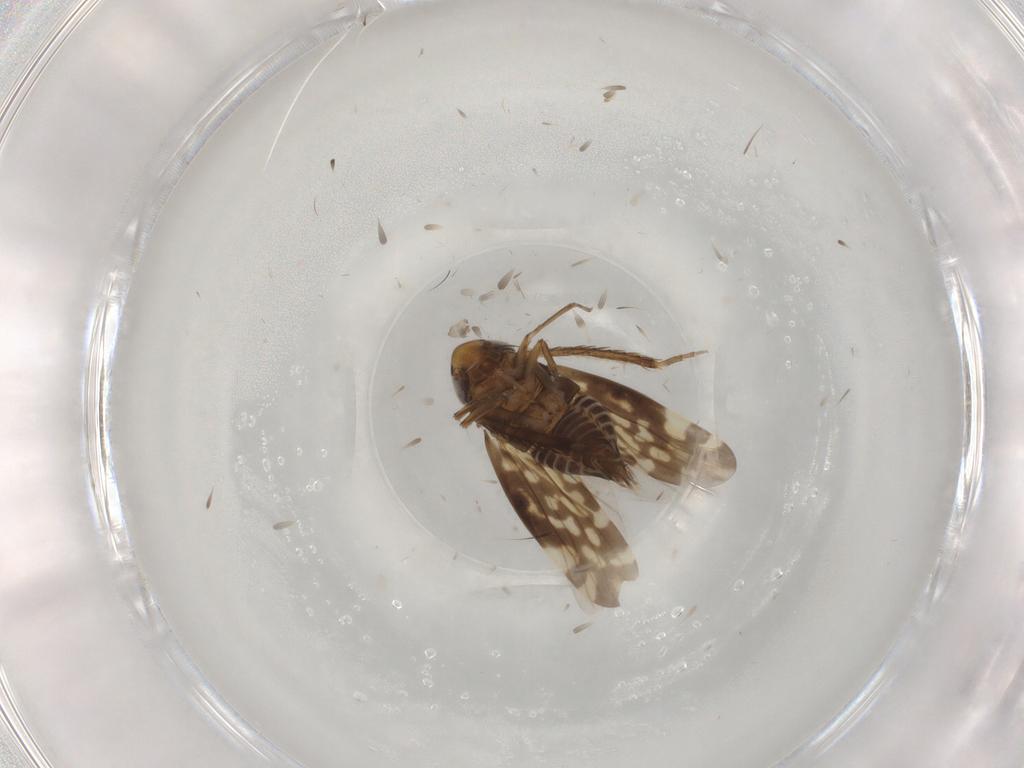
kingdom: Animalia
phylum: Arthropoda
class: Insecta
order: Hemiptera
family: Cicadellidae
